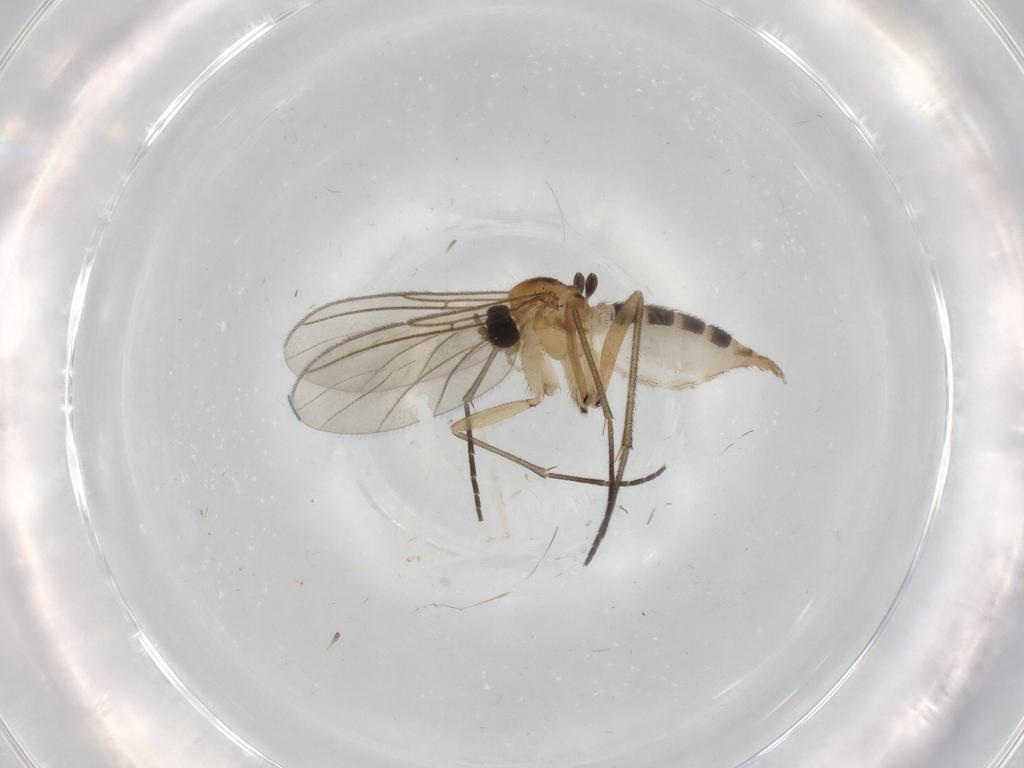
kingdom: Animalia
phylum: Arthropoda
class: Insecta
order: Diptera
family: Sciaridae
